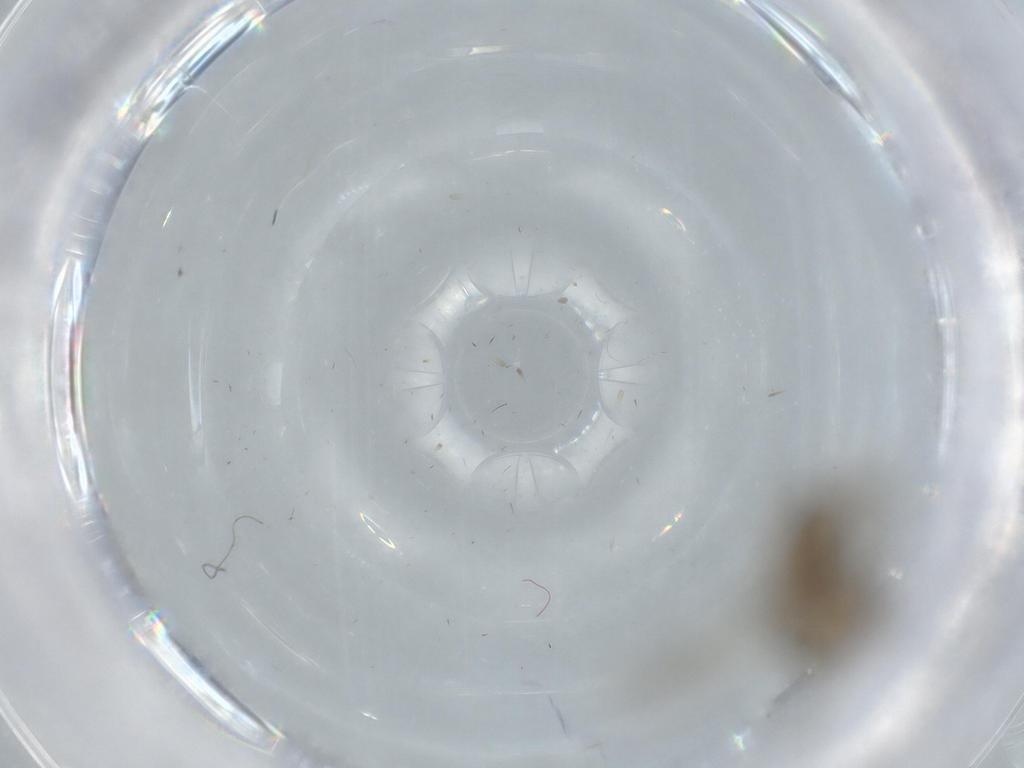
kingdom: Animalia
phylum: Arthropoda
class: Insecta
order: Diptera
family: Ceratopogonidae
